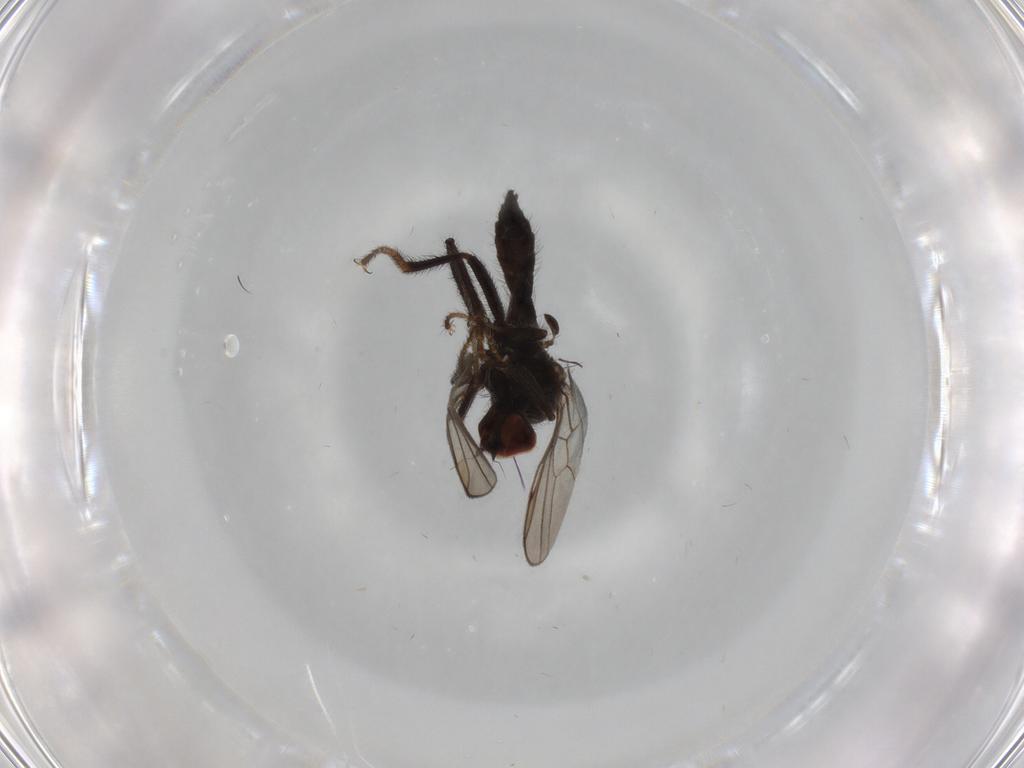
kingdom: Animalia
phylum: Arthropoda
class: Insecta
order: Diptera
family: Hybotidae
